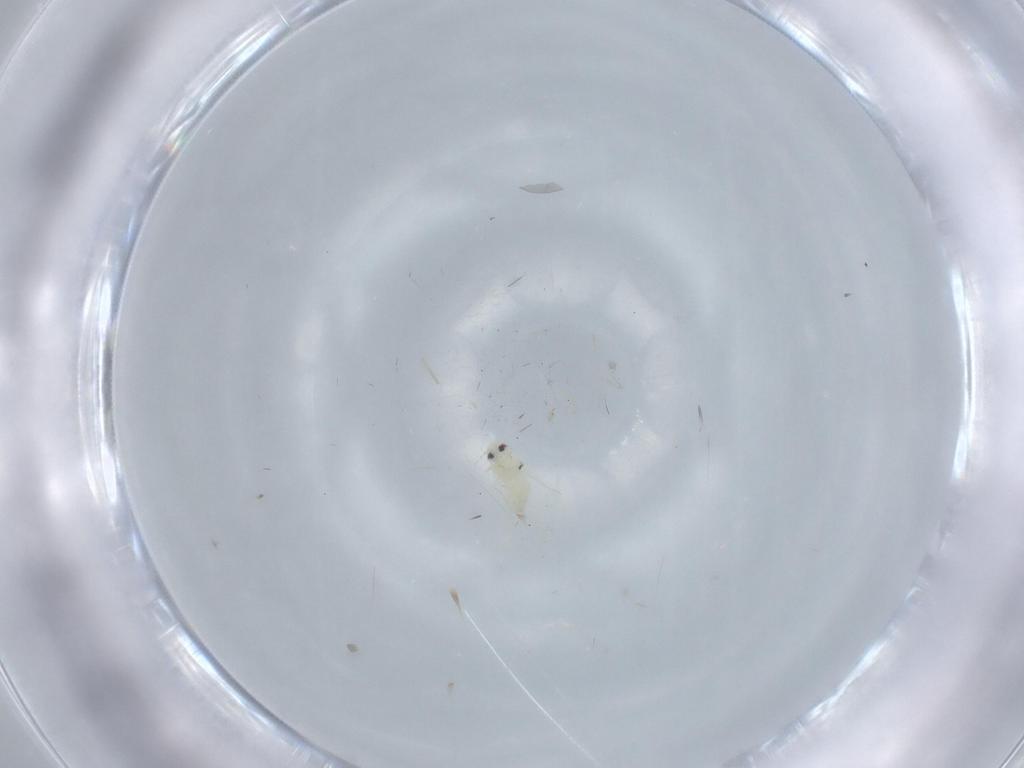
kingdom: Animalia
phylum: Arthropoda
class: Insecta
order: Hemiptera
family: Aleyrodidae
